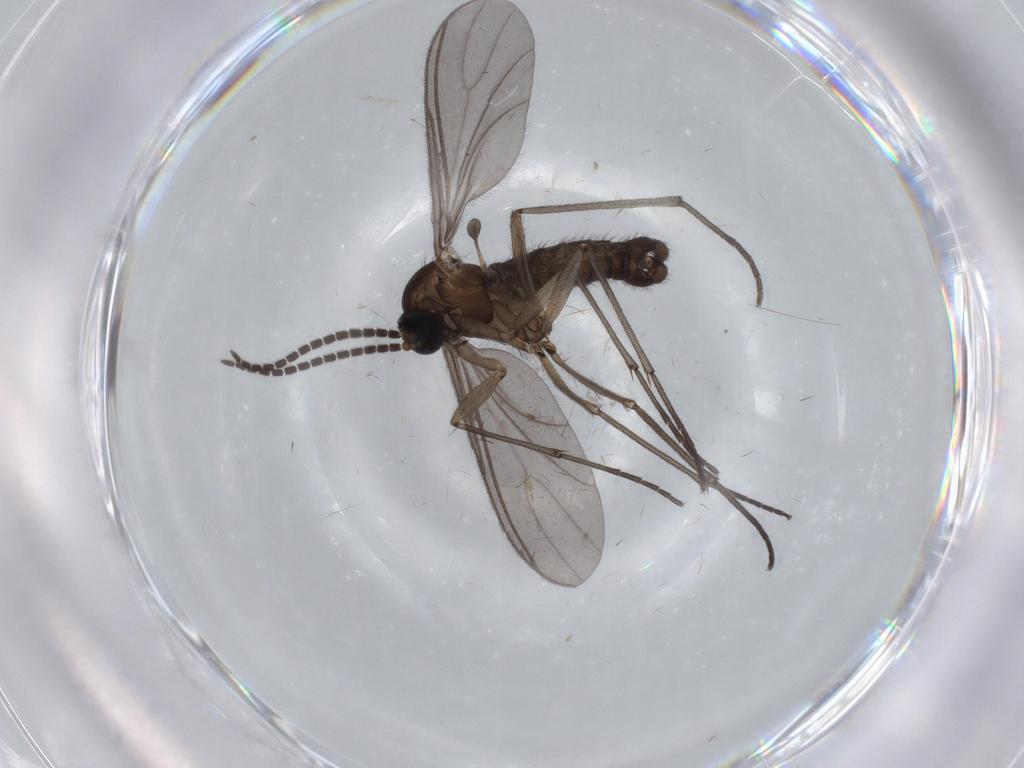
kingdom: Animalia
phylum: Arthropoda
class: Insecta
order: Diptera
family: Sciaridae
